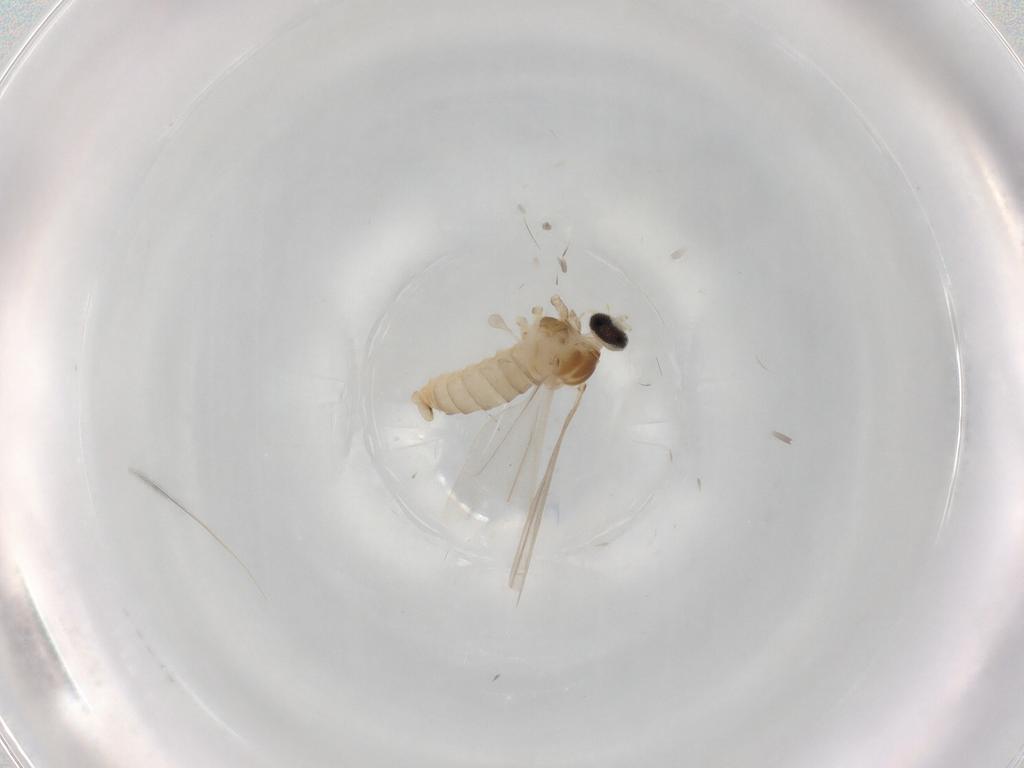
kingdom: Animalia
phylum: Arthropoda
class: Insecta
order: Diptera
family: Cecidomyiidae
